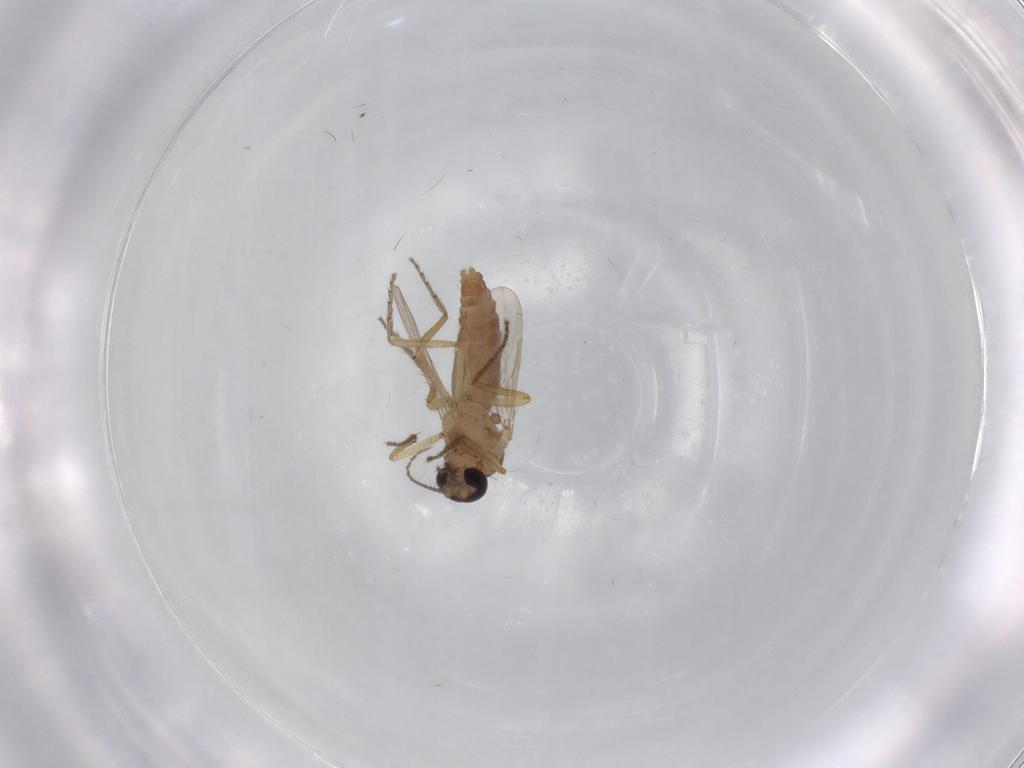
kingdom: Animalia
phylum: Arthropoda
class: Insecta
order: Diptera
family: Ceratopogonidae
